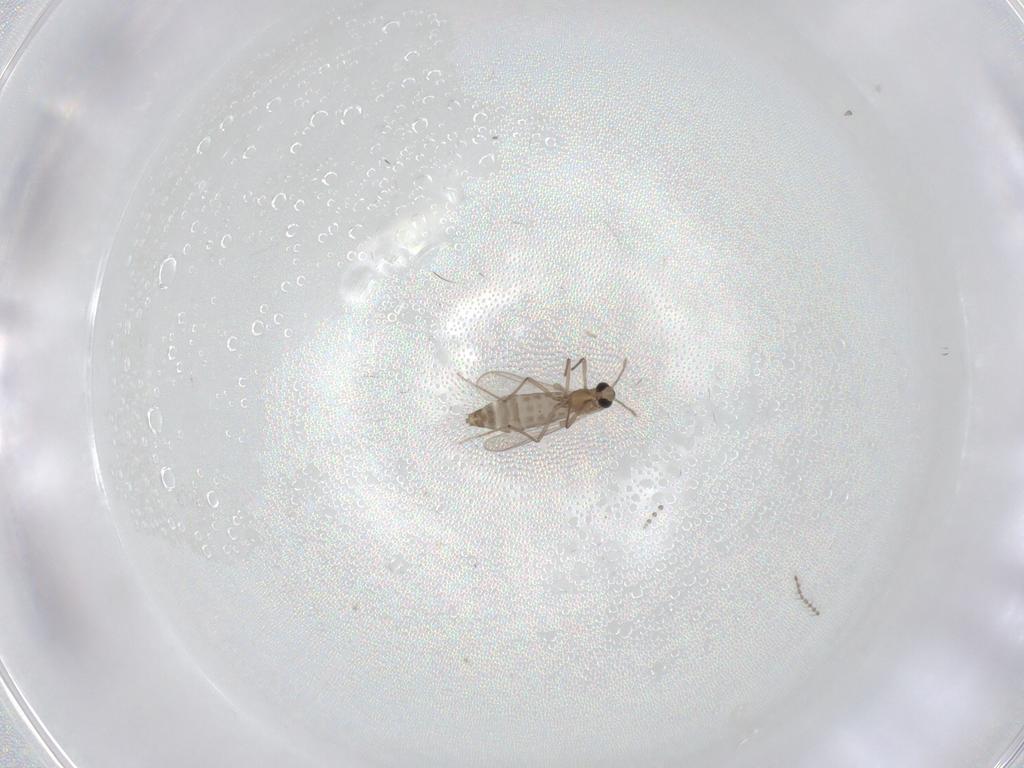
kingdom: Animalia
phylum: Arthropoda
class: Insecta
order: Diptera
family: Chironomidae
